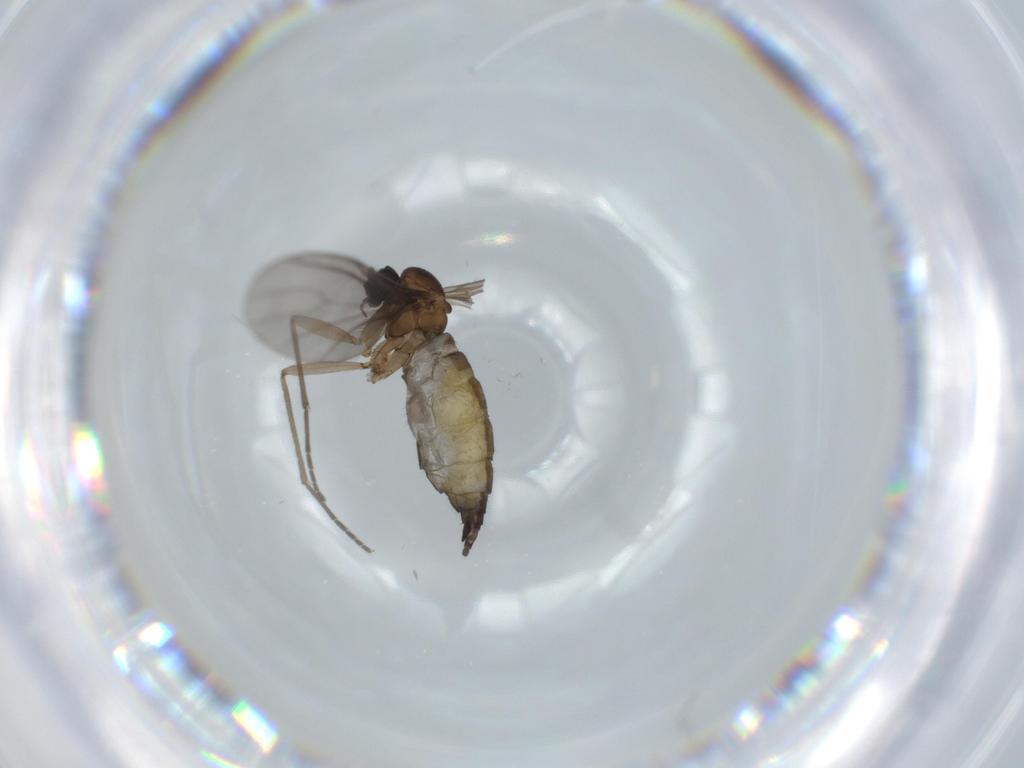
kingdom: Animalia
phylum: Arthropoda
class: Insecta
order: Diptera
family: Sciaridae
